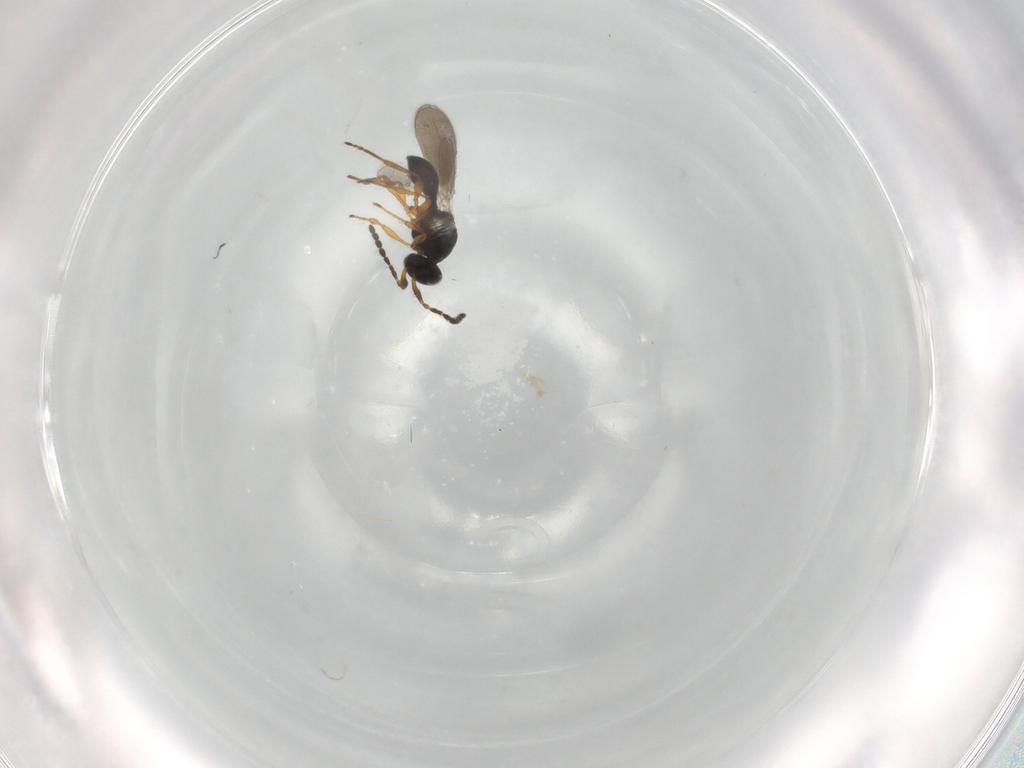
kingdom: Animalia
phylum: Arthropoda
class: Insecta
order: Hymenoptera
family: Platygastridae
